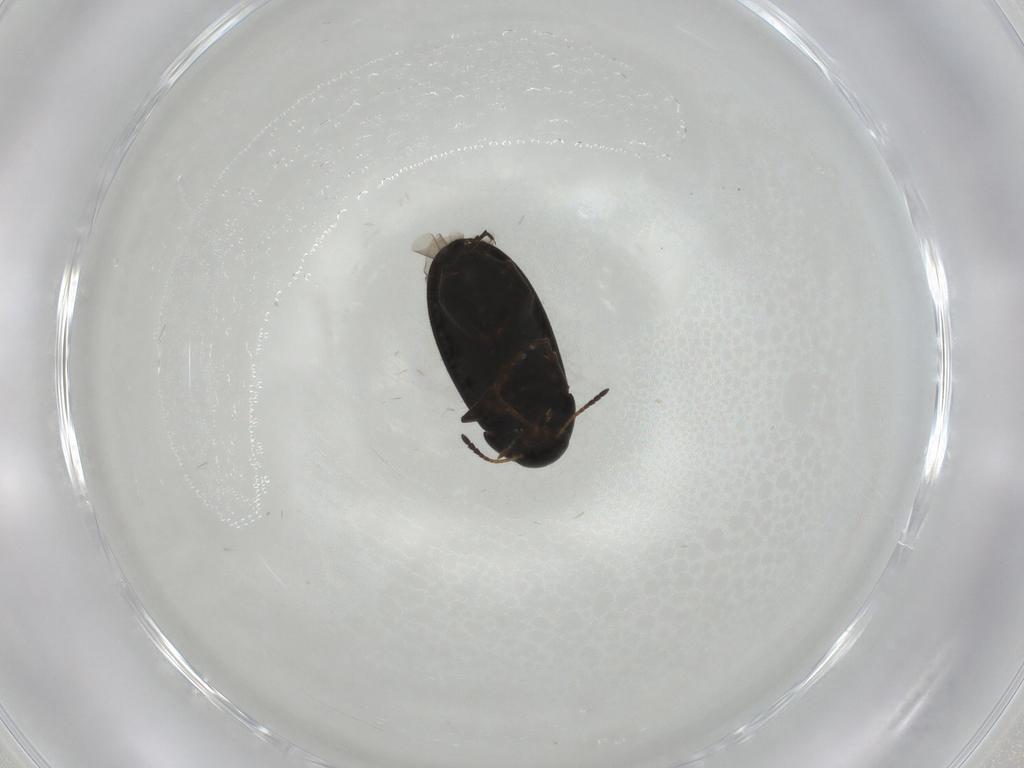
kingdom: Animalia
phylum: Arthropoda
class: Insecta
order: Coleoptera
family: Scraptiidae
